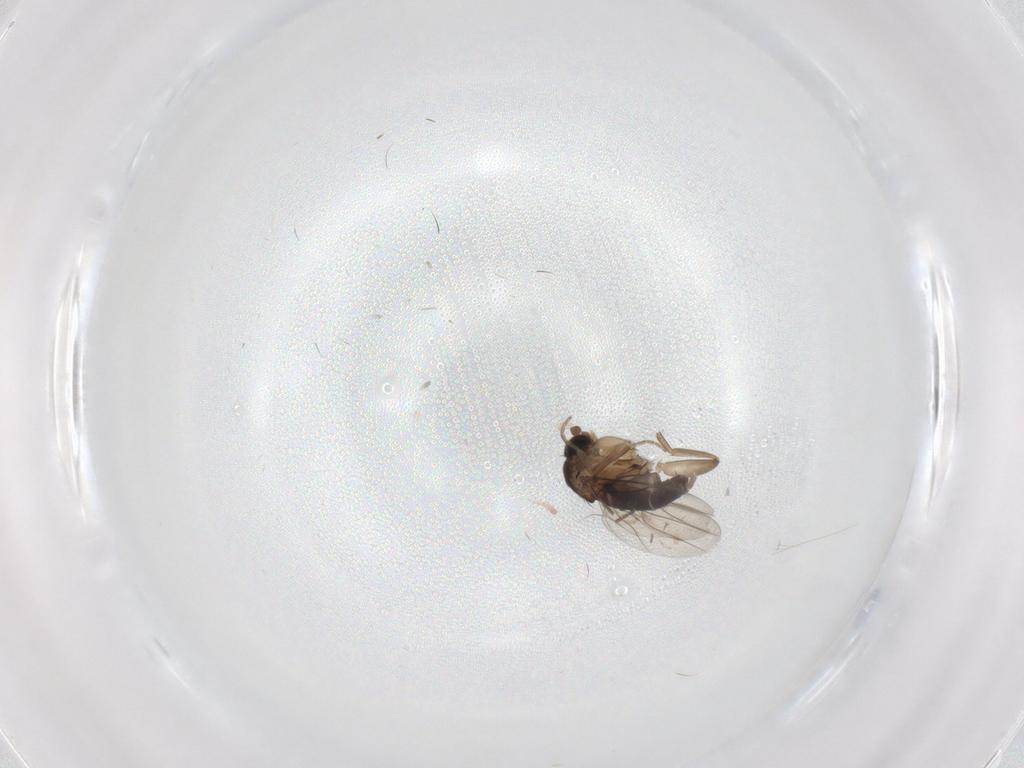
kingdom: Animalia
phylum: Arthropoda
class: Insecta
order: Diptera
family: Phoridae
